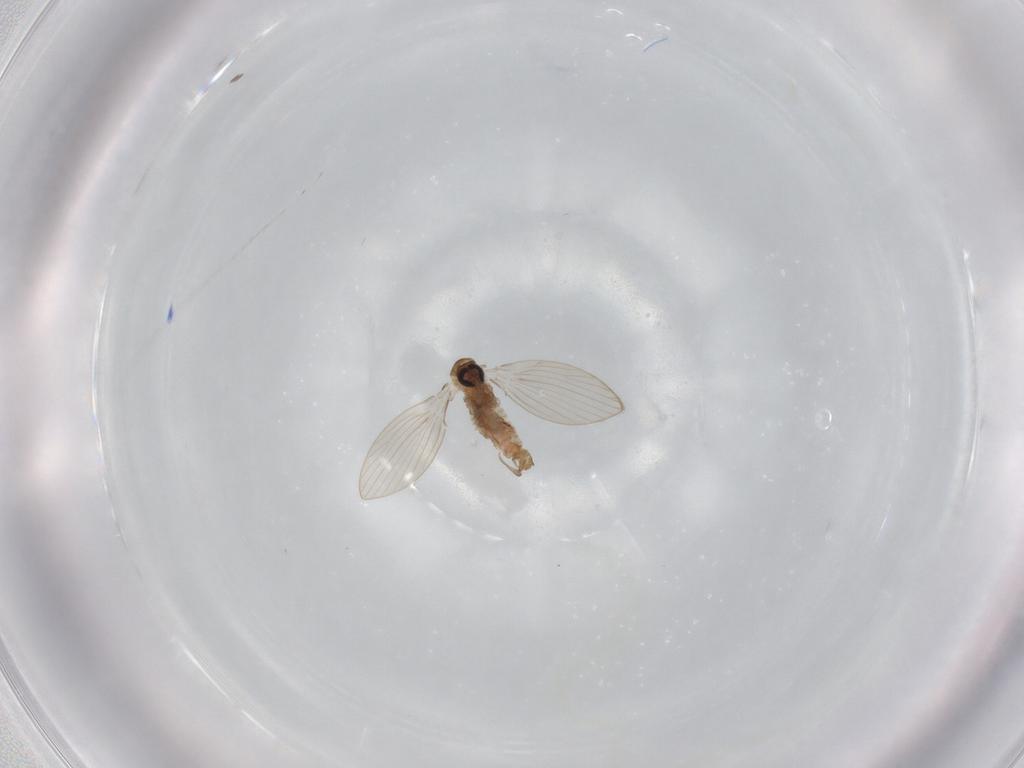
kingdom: Animalia
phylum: Arthropoda
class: Insecta
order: Diptera
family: Psychodidae
